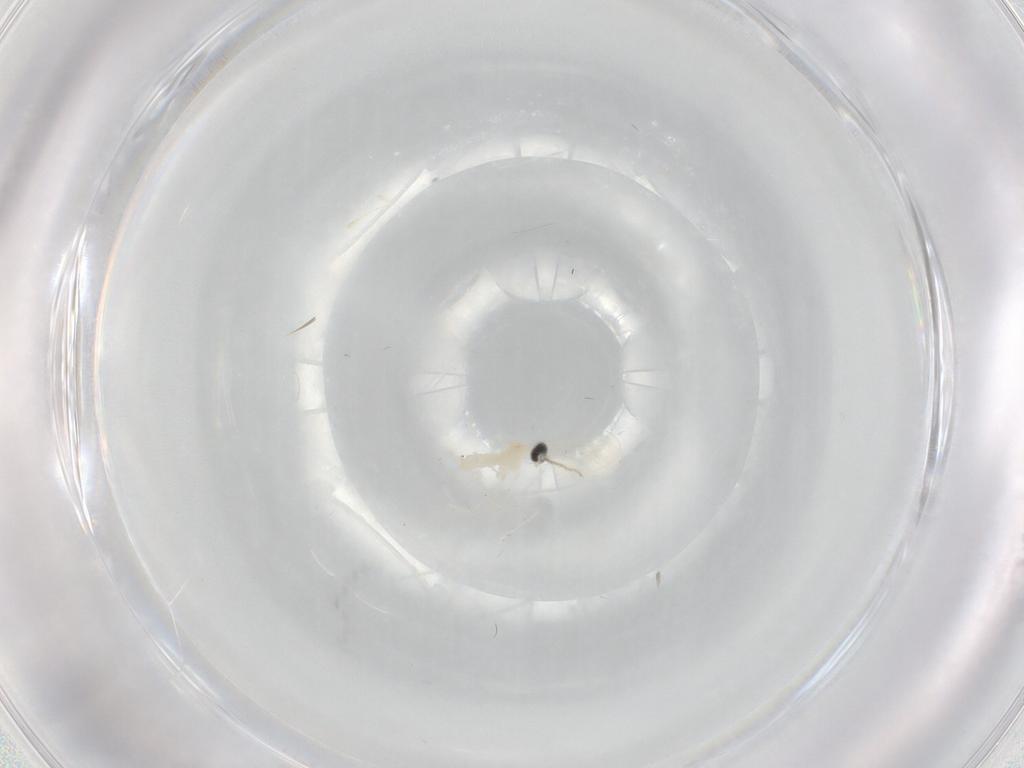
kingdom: Animalia
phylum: Arthropoda
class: Insecta
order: Diptera
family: Cecidomyiidae
